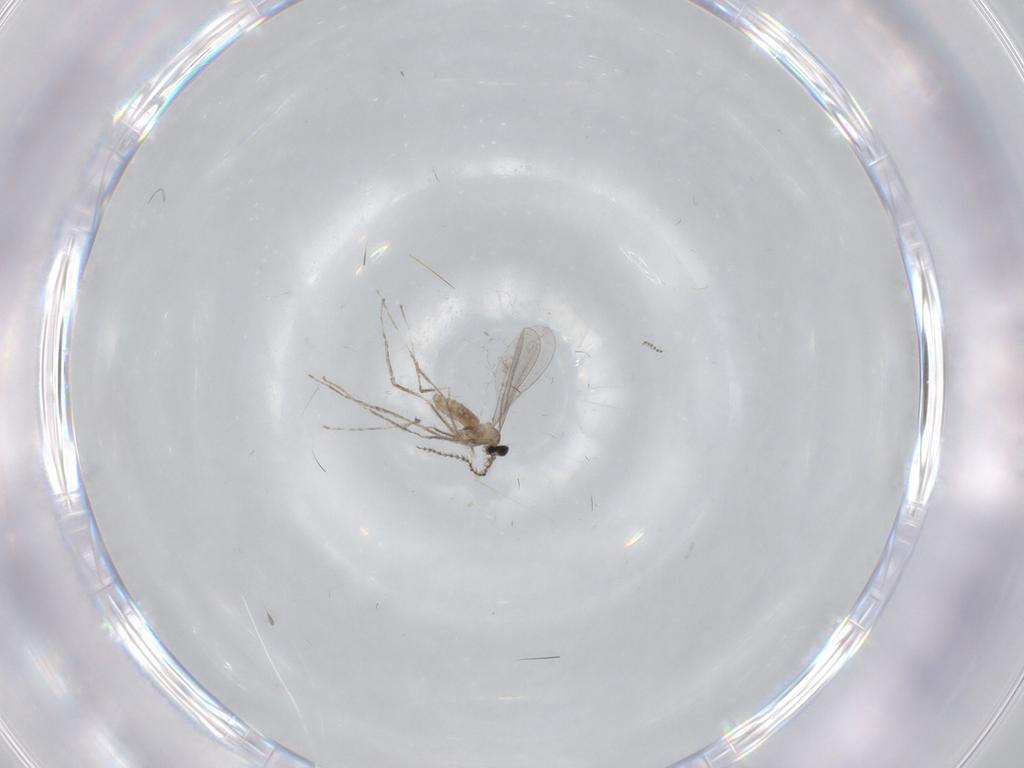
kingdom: Animalia
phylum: Arthropoda
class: Insecta
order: Diptera
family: Cecidomyiidae
